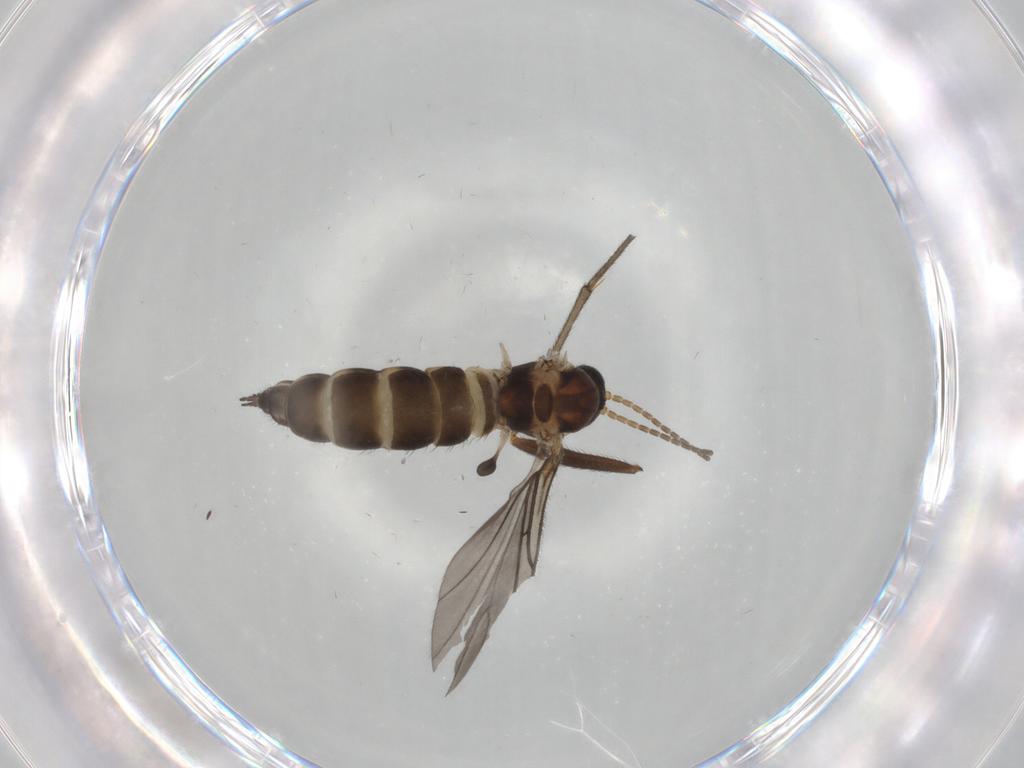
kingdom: Animalia
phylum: Arthropoda
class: Insecta
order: Diptera
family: Sciaridae
